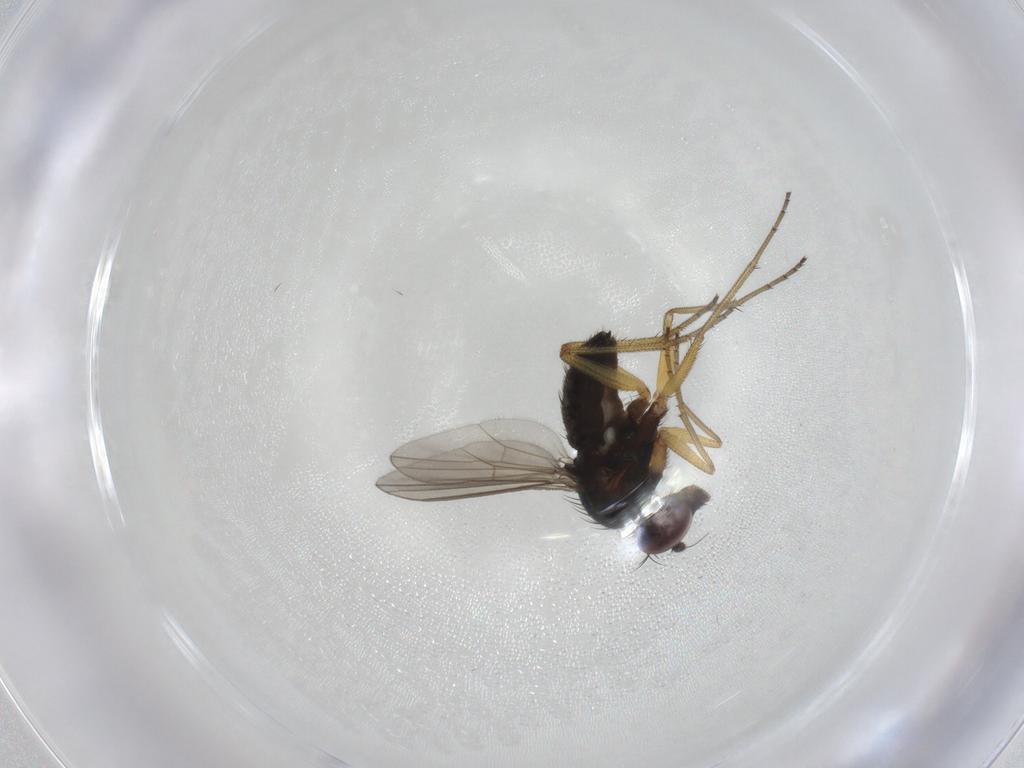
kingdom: Animalia
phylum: Arthropoda
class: Insecta
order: Diptera
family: Dolichopodidae
